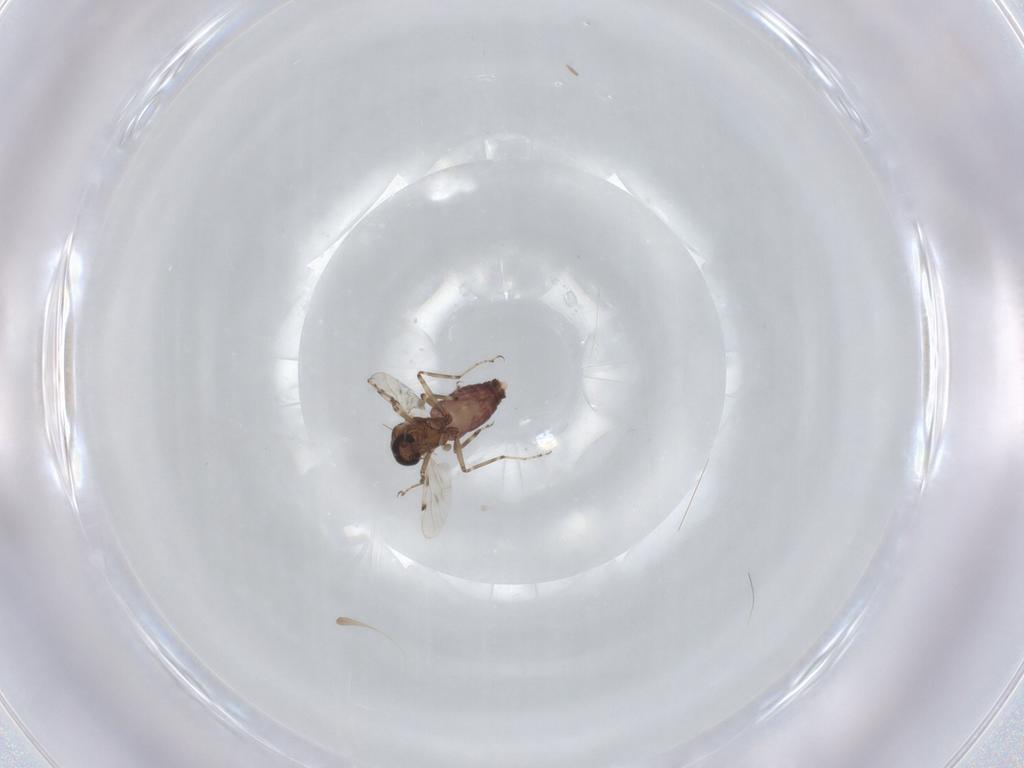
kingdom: Animalia
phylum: Arthropoda
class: Insecta
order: Diptera
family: Ceratopogonidae
